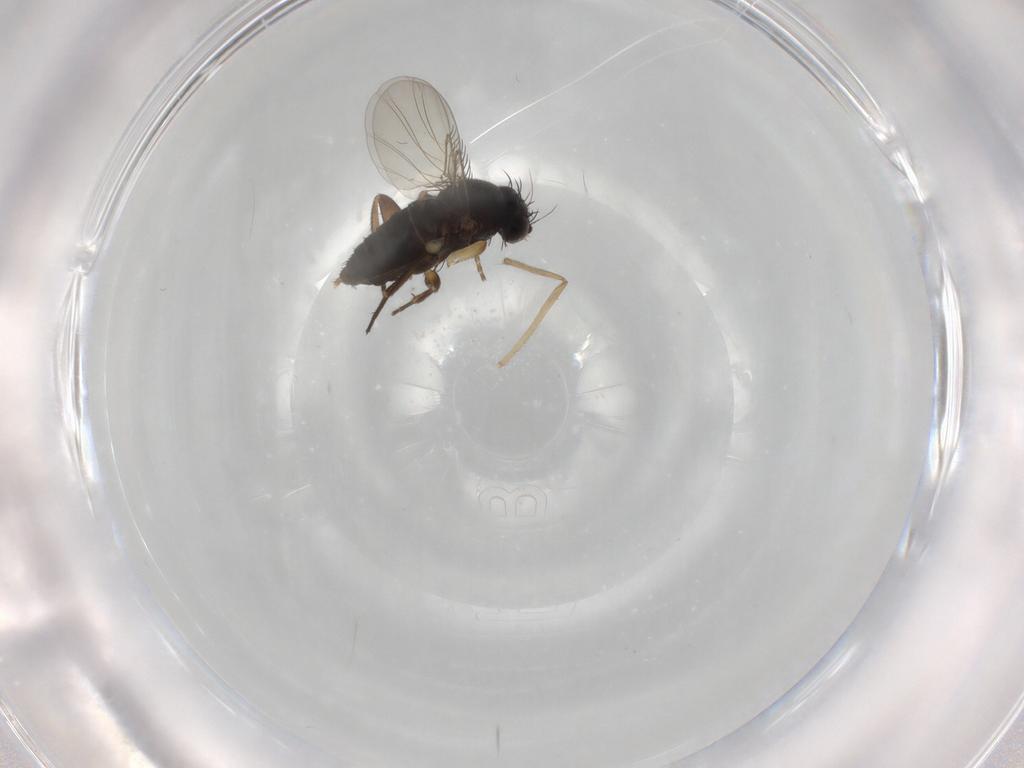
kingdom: Animalia
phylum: Arthropoda
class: Insecta
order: Diptera
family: Phoridae
